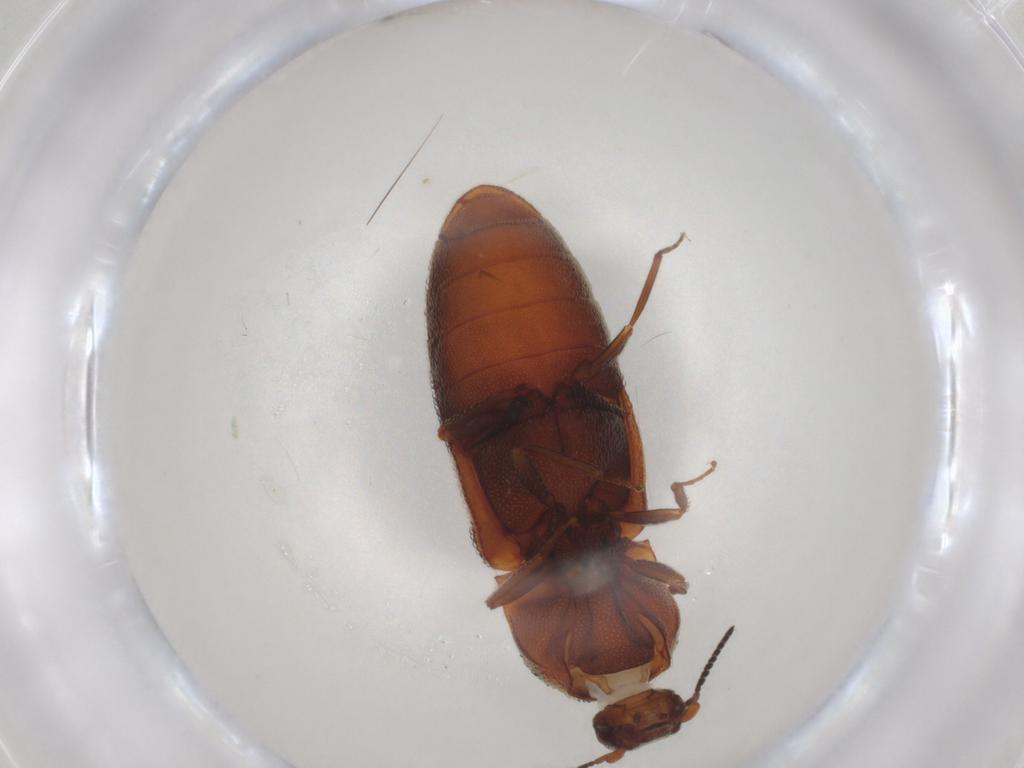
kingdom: Animalia
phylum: Arthropoda
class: Insecta
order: Coleoptera
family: Elateridae
